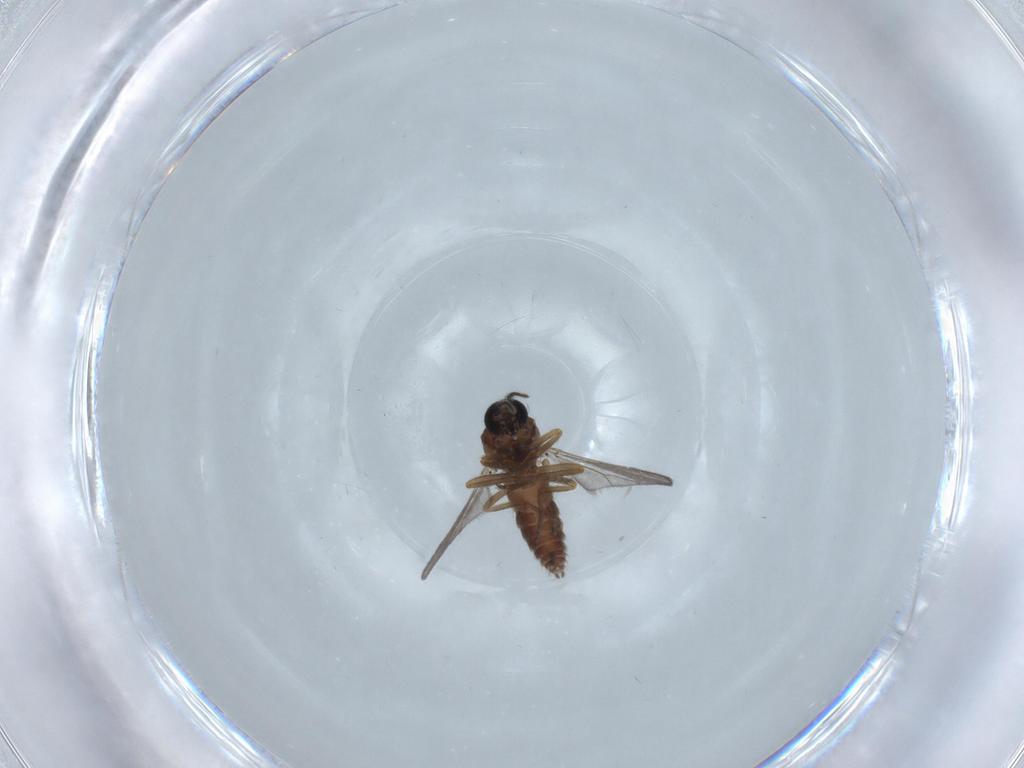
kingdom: Animalia
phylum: Arthropoda
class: Insecta
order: Diptera
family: Ceratopogonidae
